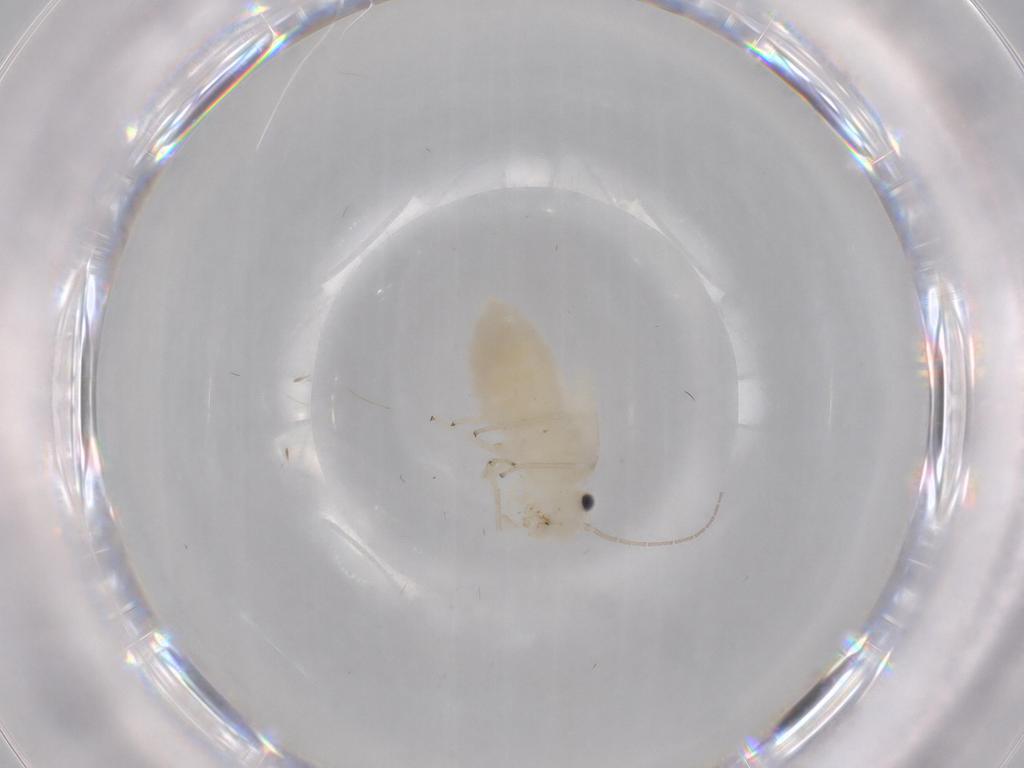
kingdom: Animalia
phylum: Arthropoda
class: Insecta
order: Psocodea
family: Caeciliusidae
